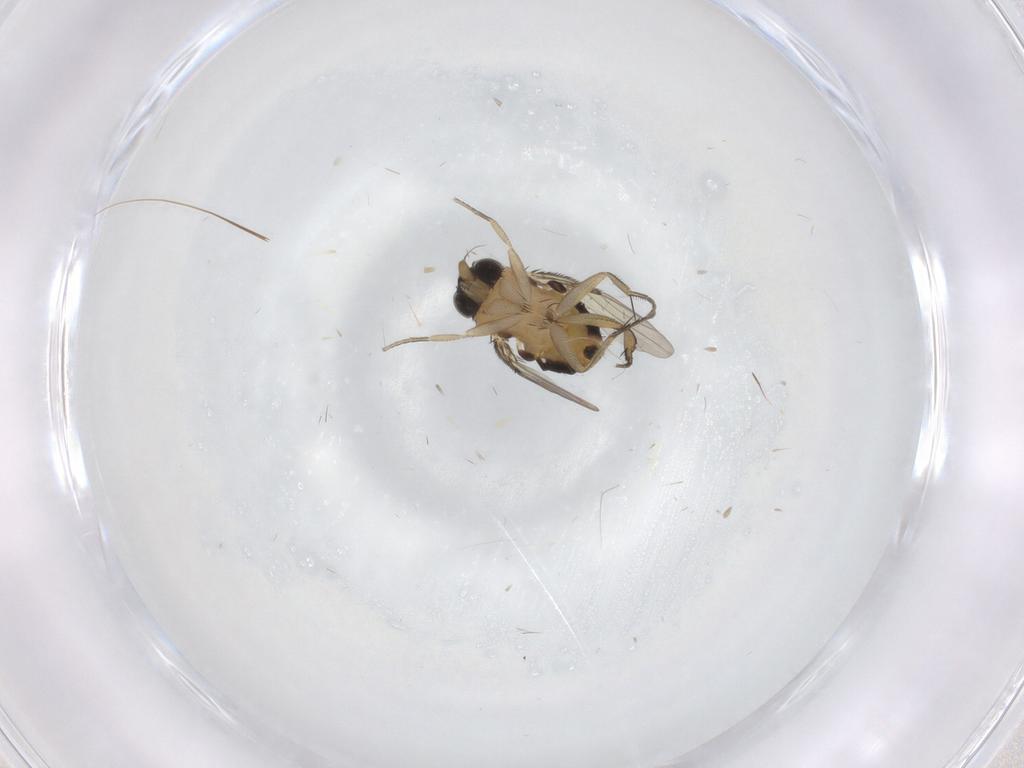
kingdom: Animalia
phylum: Arthropoda
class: Insecta
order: Diptera
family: Phoridae
